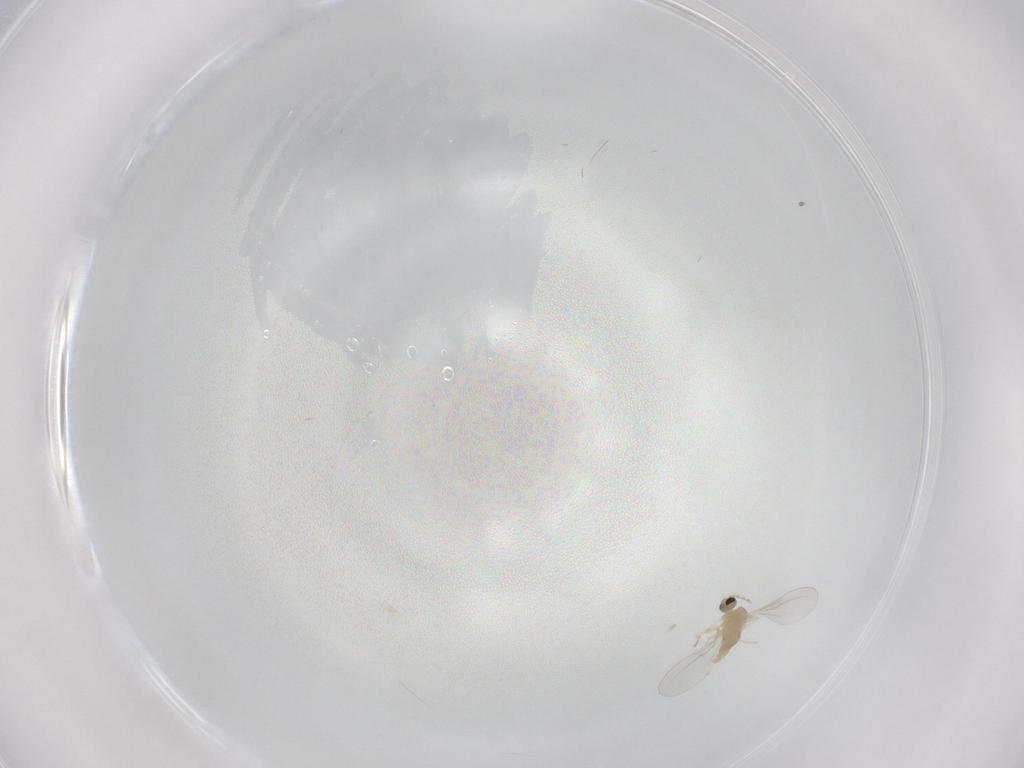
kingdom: Animalia
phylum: Arthropoda
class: Insecta
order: Diptera
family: Cecidomyiidae
